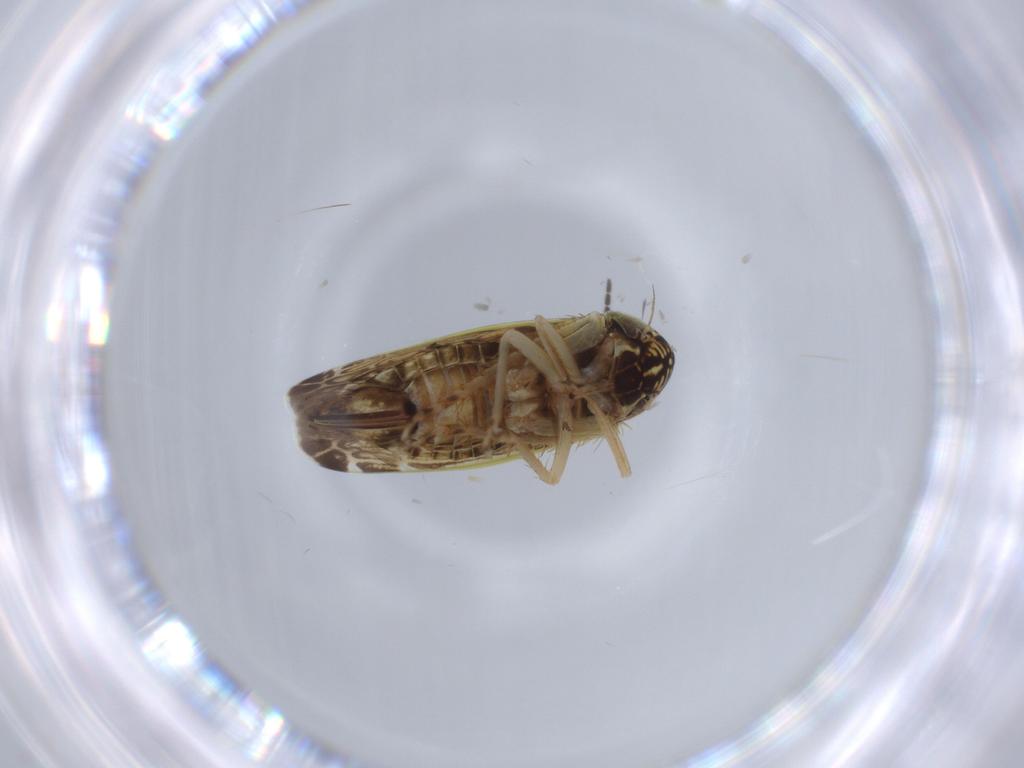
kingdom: Animalia
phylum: Arthropoda
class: Insecta
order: Hemiptera
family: Cicadellidae
